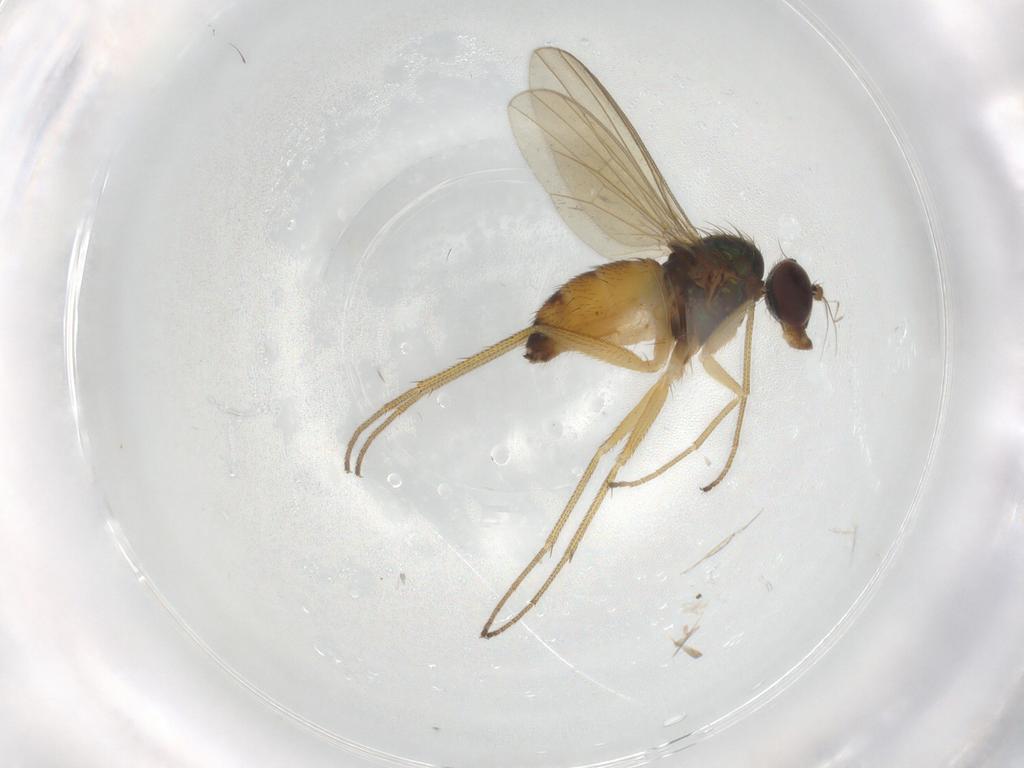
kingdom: Animalia
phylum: Arthropoda
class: Insecta
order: Diptera
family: Dolichopodidae
